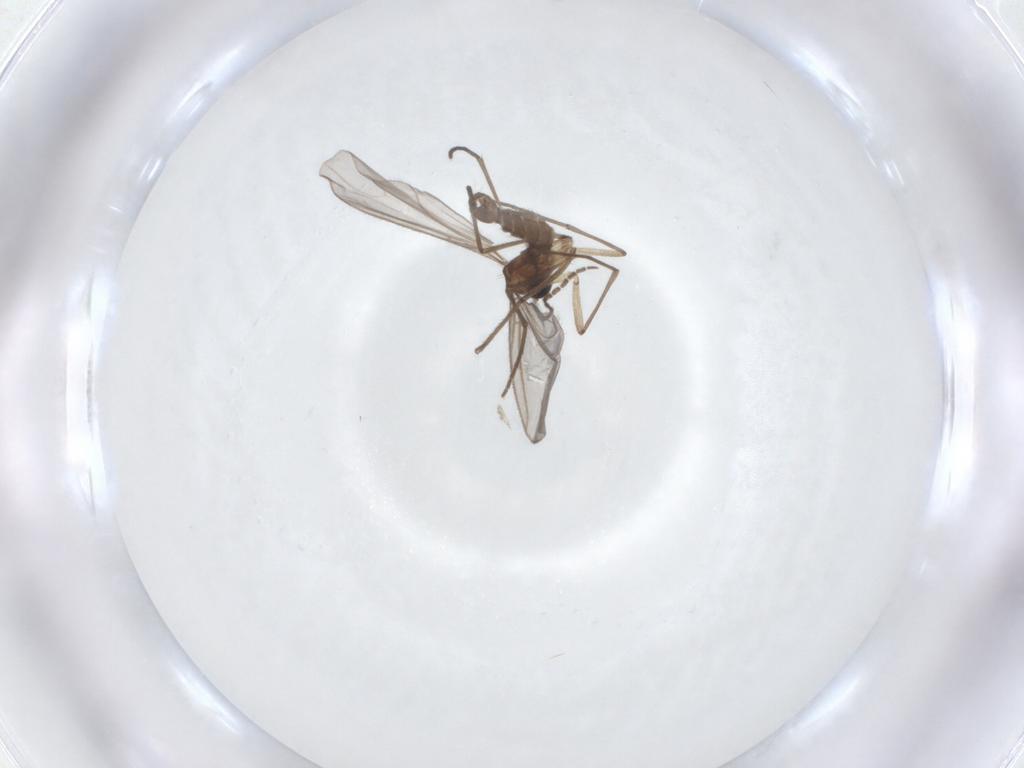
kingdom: Animalia
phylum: Arthropoda
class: Insecta
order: Diptera
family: Sciaridae
